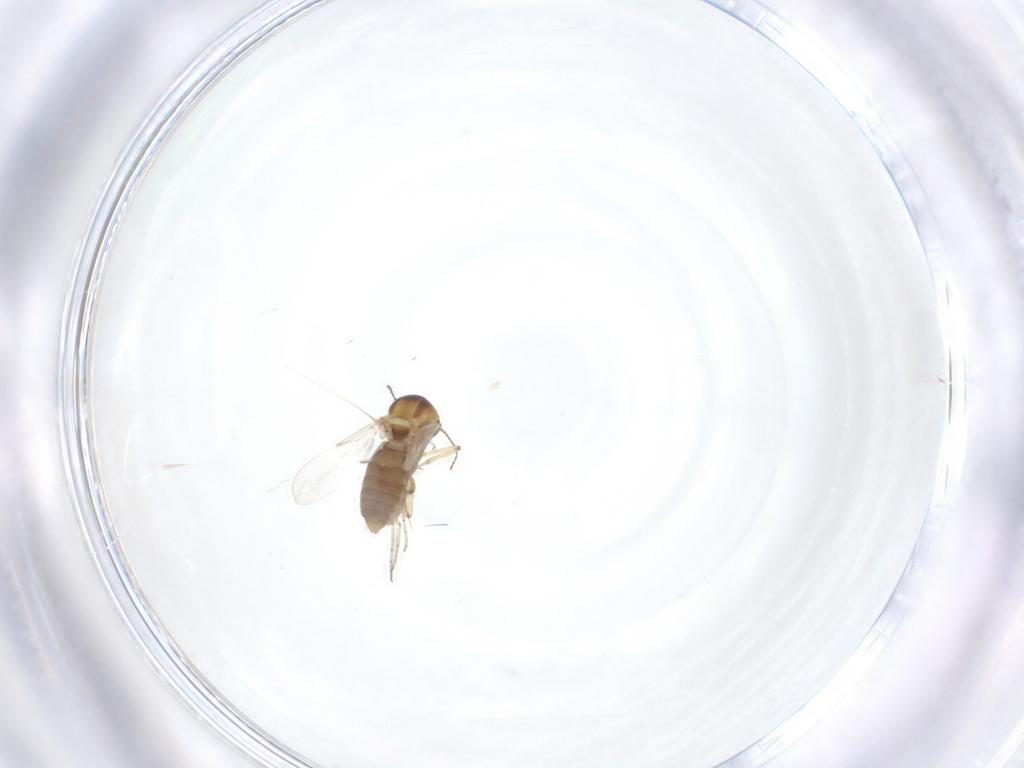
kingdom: Animalia
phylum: Arthropoda
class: Insecta
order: Diptera
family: Ceratopogonidae
